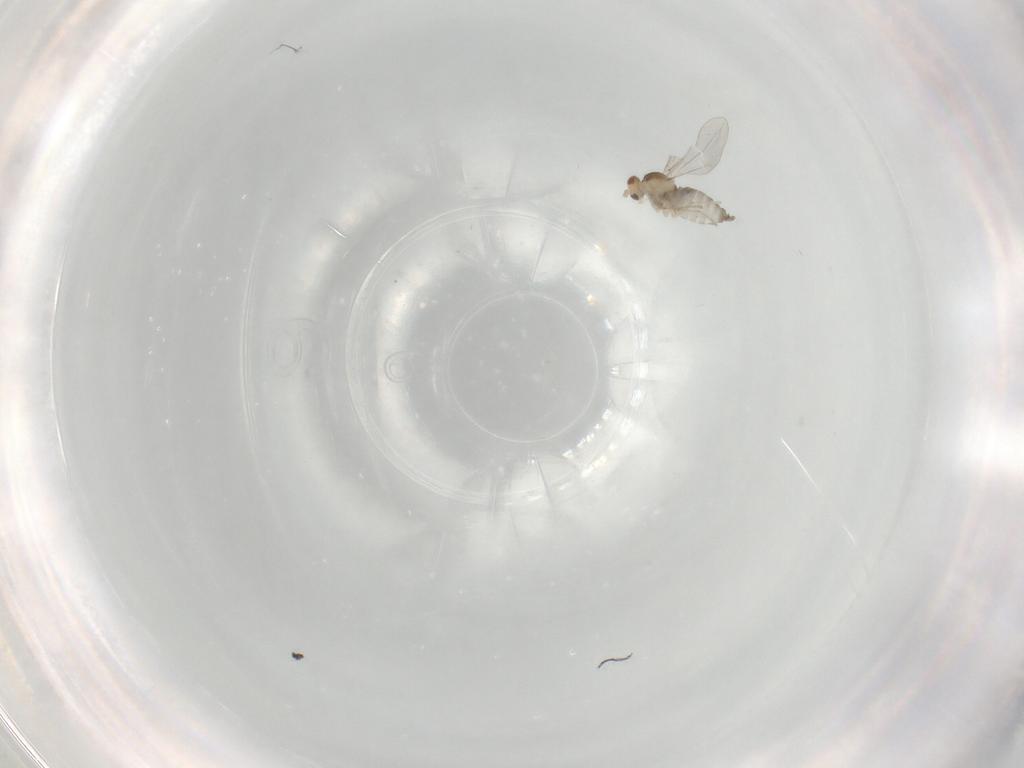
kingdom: Animalia
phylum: Arthropoda
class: Insecta
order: Diptera
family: Cecidomyiidae
